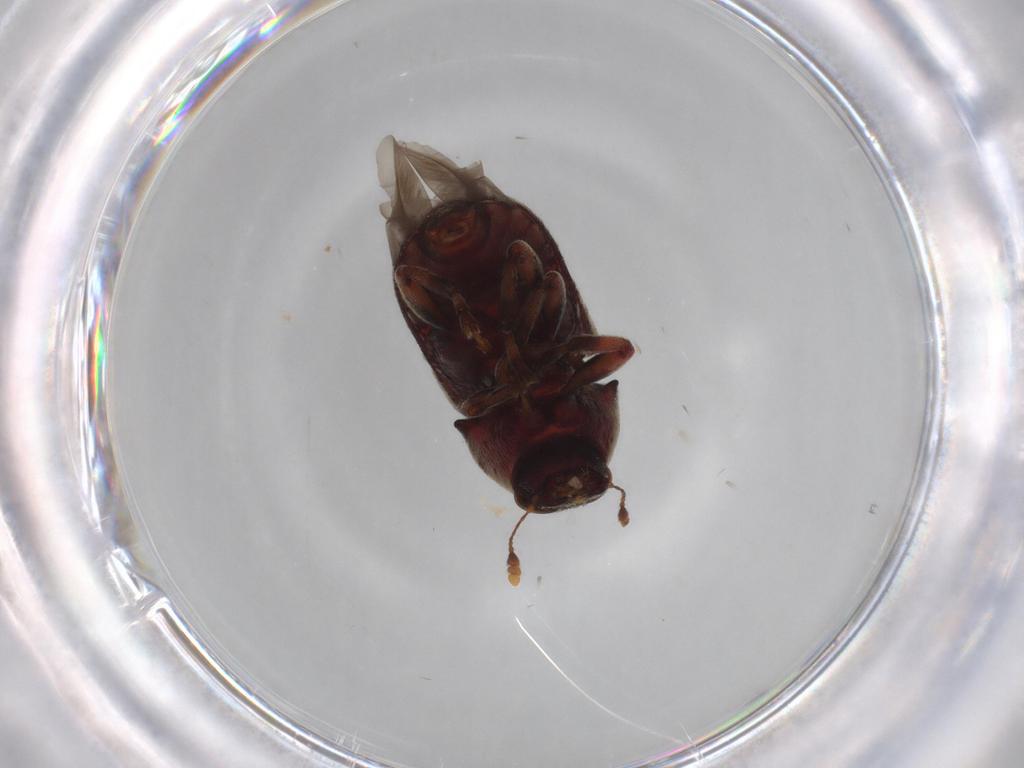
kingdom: Animalia
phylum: Arthropoda
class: Insecta
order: Coleoptera
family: Anthribidae
